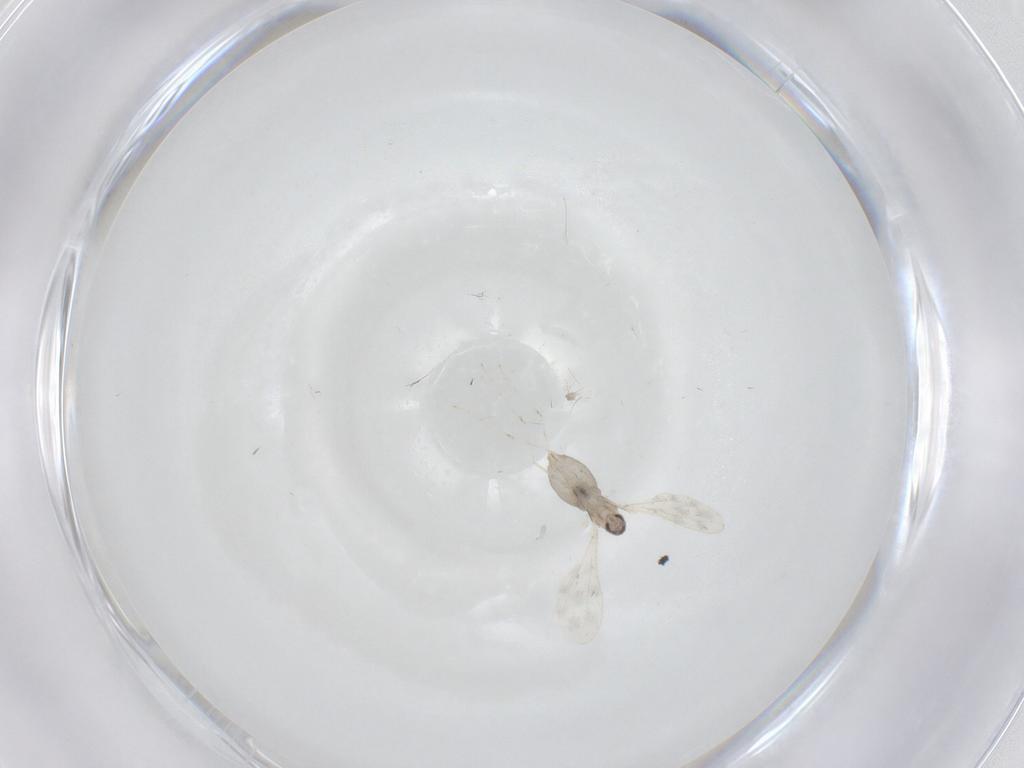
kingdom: Animalia
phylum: Arthropoda
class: Insecta
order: Diptera
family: Cecidomyiidae
